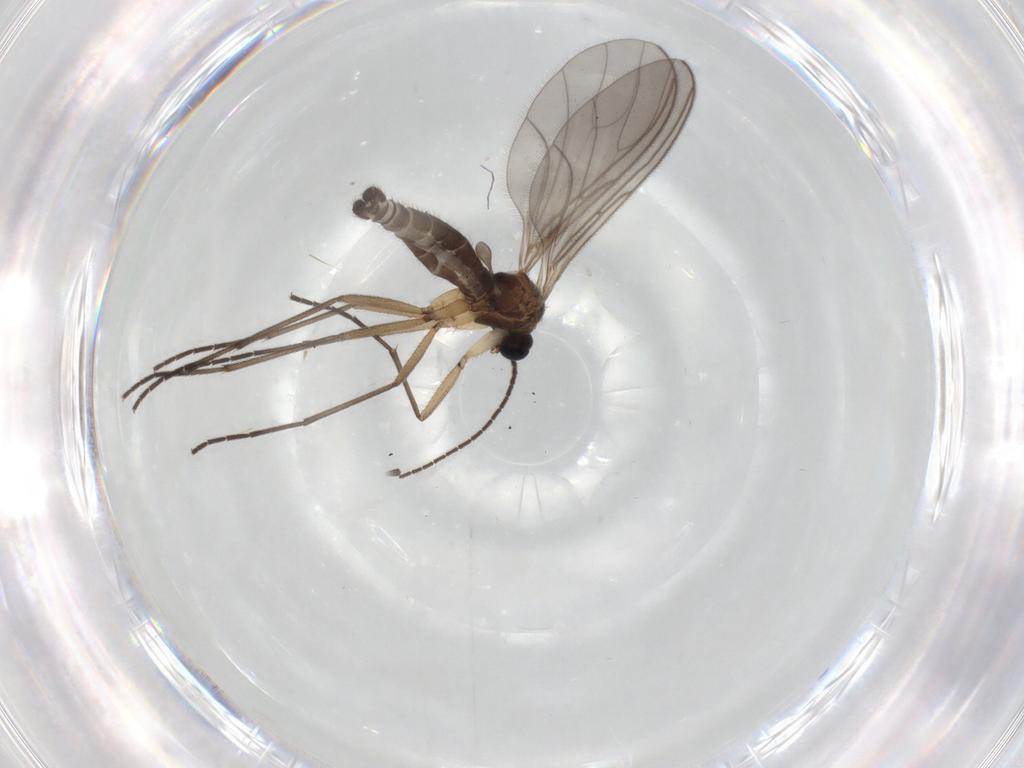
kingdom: Animalia
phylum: Arthropoda
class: Insecta
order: Diptera
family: Sciaridae
